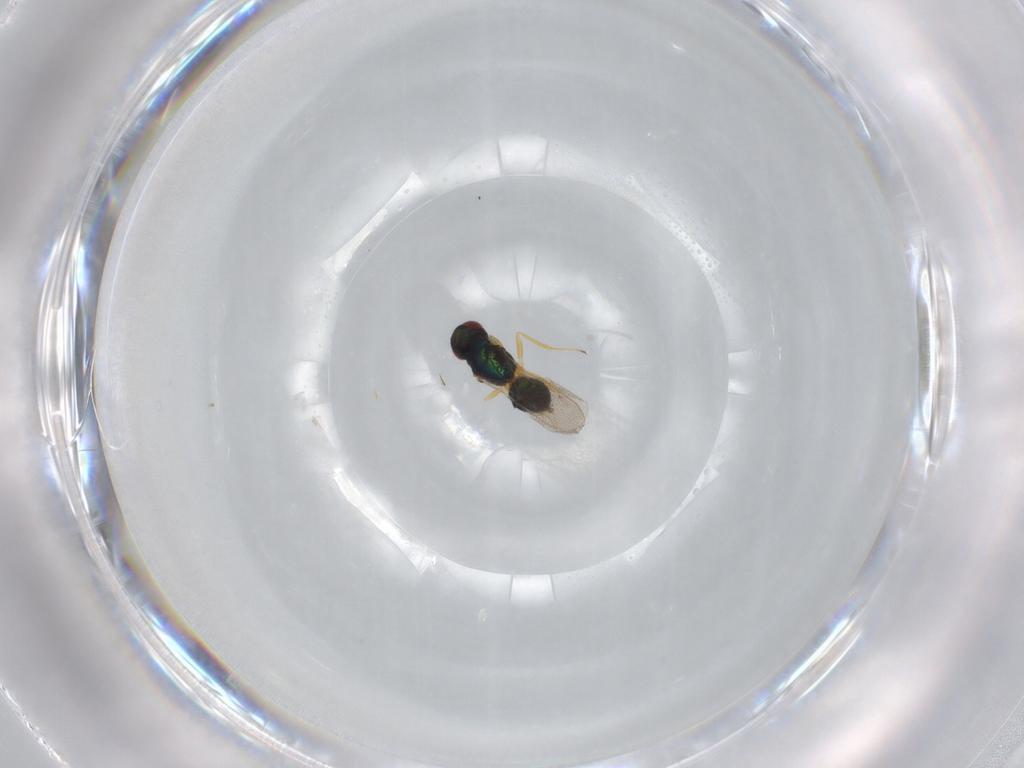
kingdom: Animalia
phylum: Arthropoda
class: Insecta
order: Hymenoptera
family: Tetracampidae
